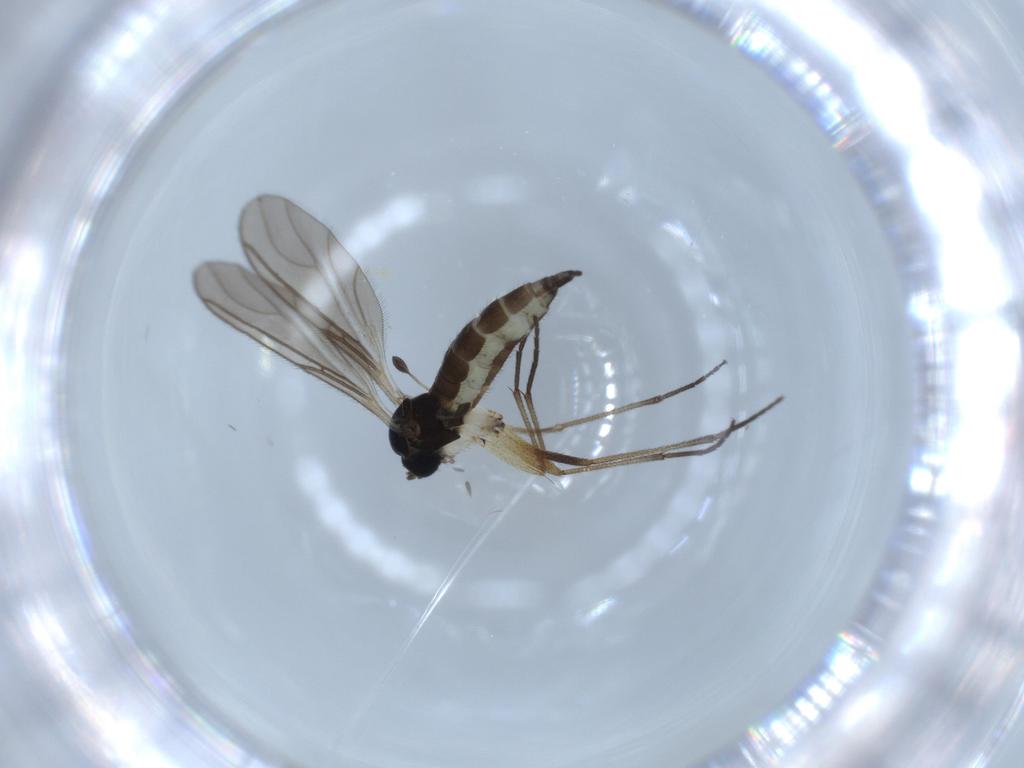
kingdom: Animalia
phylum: Arthropoda
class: Insecta
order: Diptera
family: Sciaridae
